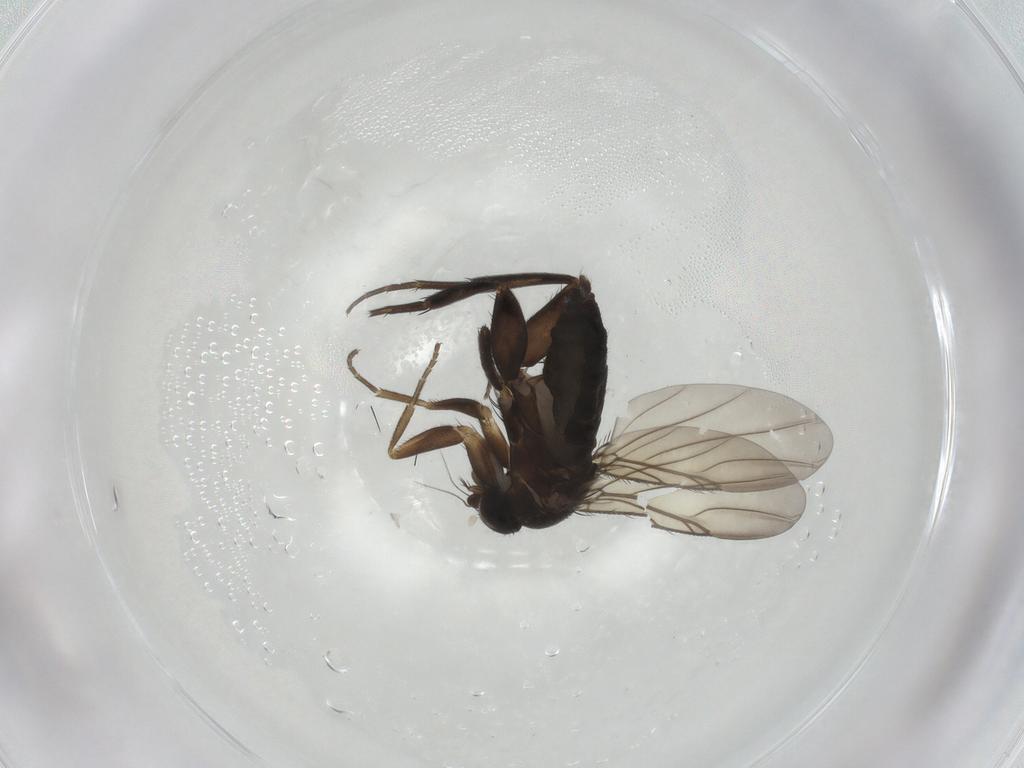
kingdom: Animalia
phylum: Arthropoda
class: Insecta
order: Diptera
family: Phoridae
